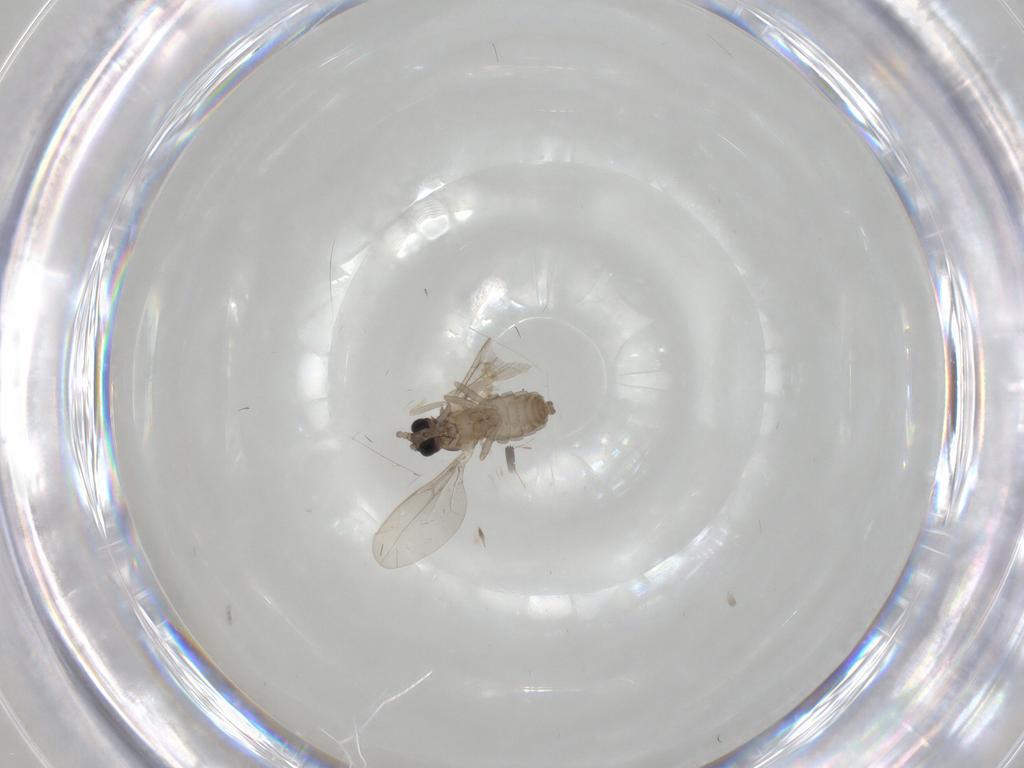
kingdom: Animalia
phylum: Arthropoda
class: Insecta
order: Diptera
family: Cecidomyiidae
